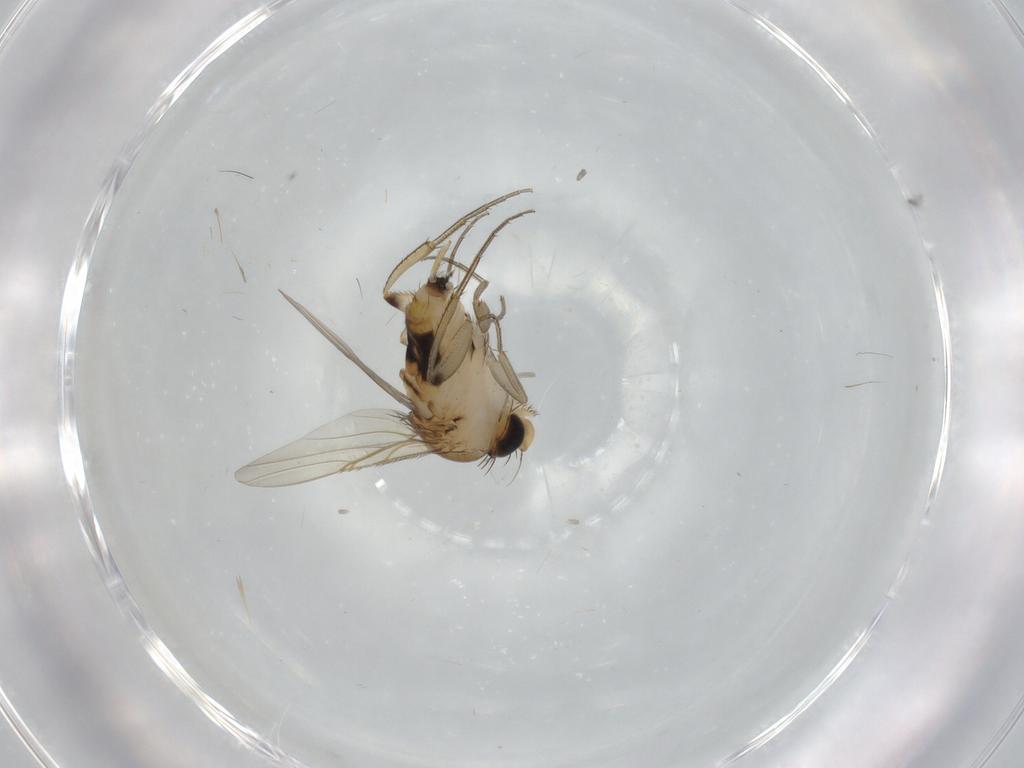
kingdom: Animalia
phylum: Arthropoda
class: Insecta
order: Diptera
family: Phoridae
